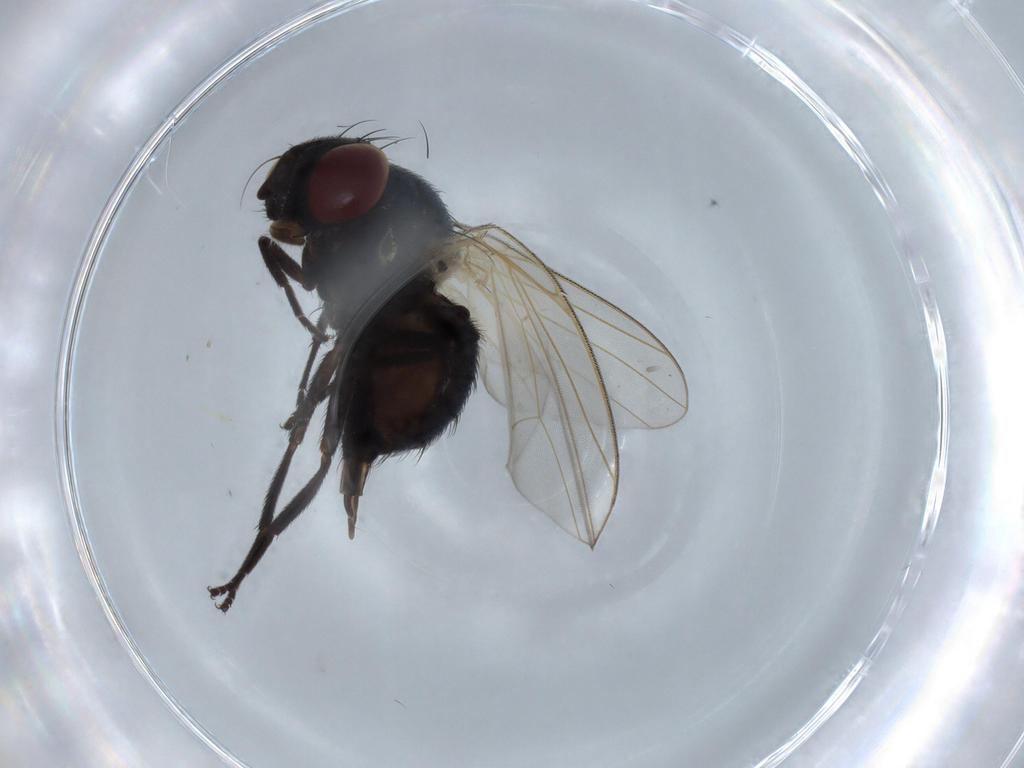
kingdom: Animalia
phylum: Arthropoda
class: Insecta
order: Diptera
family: Lonchaeidae
